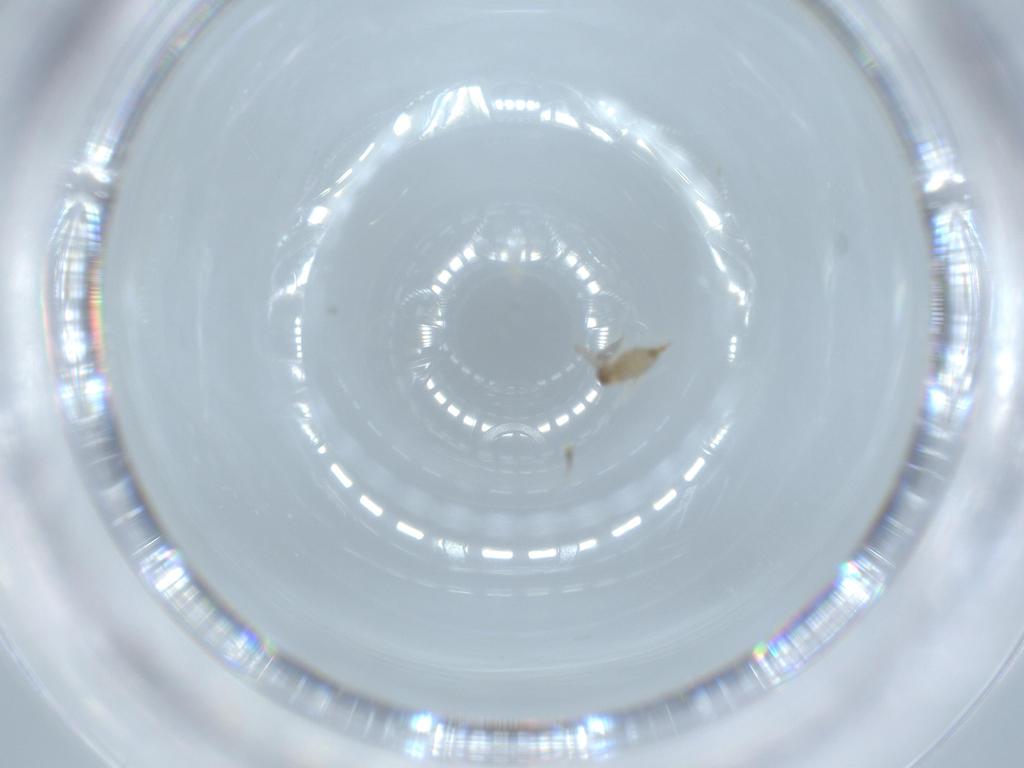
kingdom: Animalia
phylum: Arthropoda
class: Insecta
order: Diptera
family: Cecidomyiidae
